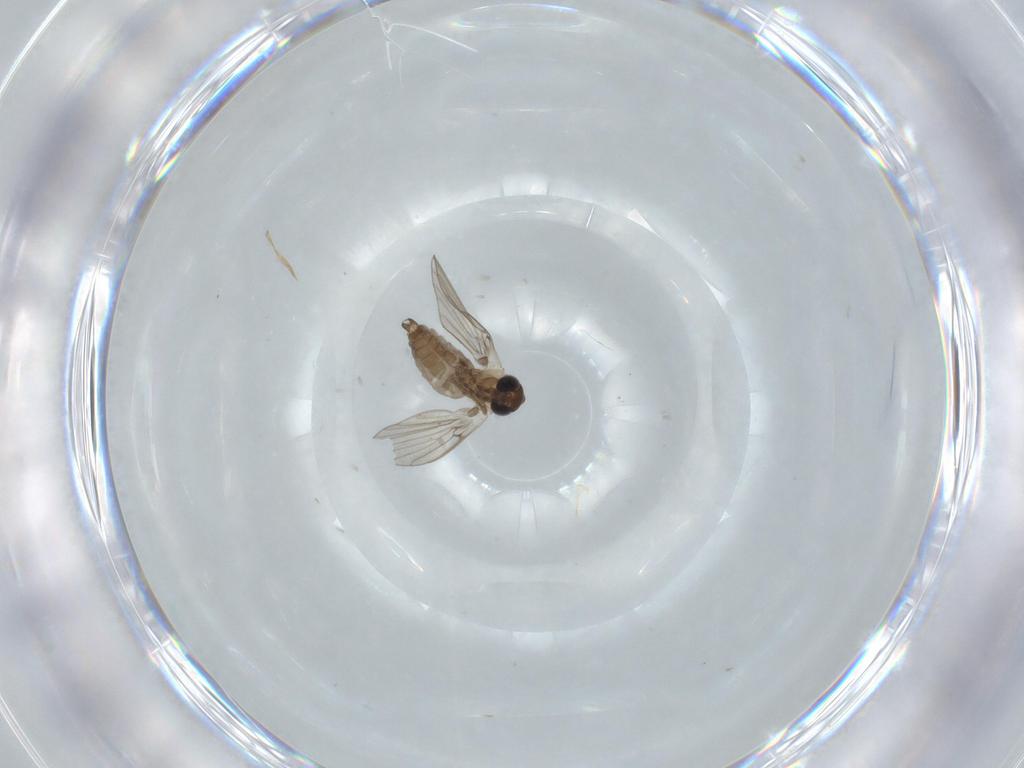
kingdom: Animalia
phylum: Arthropoda
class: Insecta
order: Diptera
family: Psychodidae
